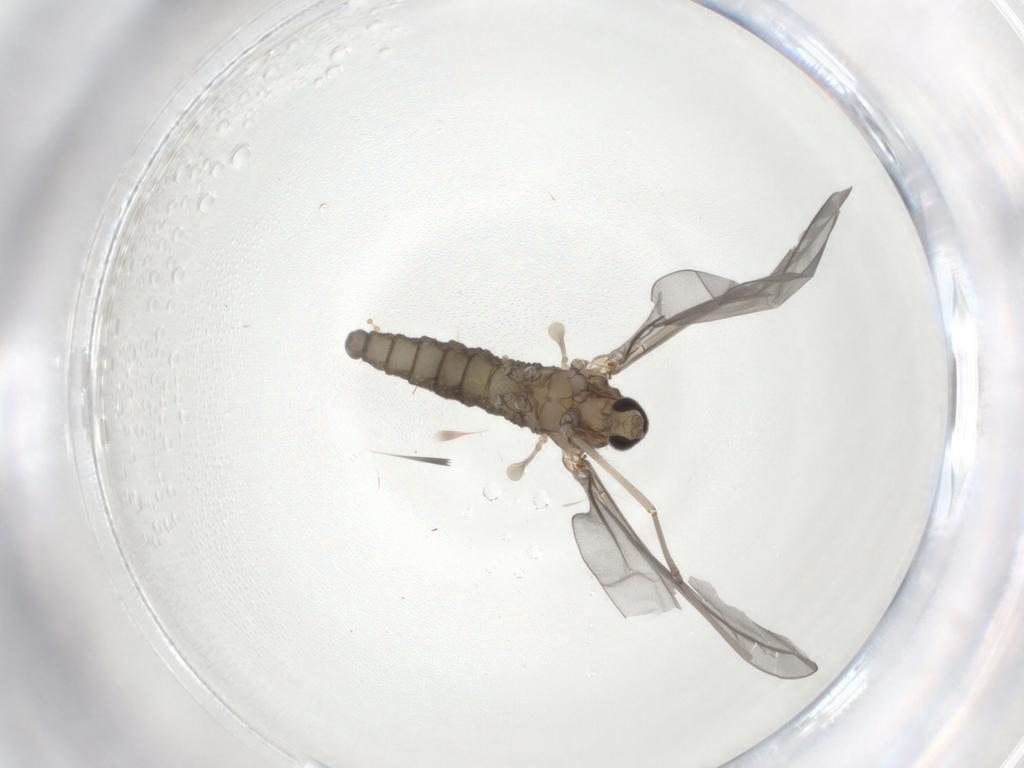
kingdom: Animalia
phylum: Arthropoda
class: Insecta
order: Diptera
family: Cecidomyiidae
